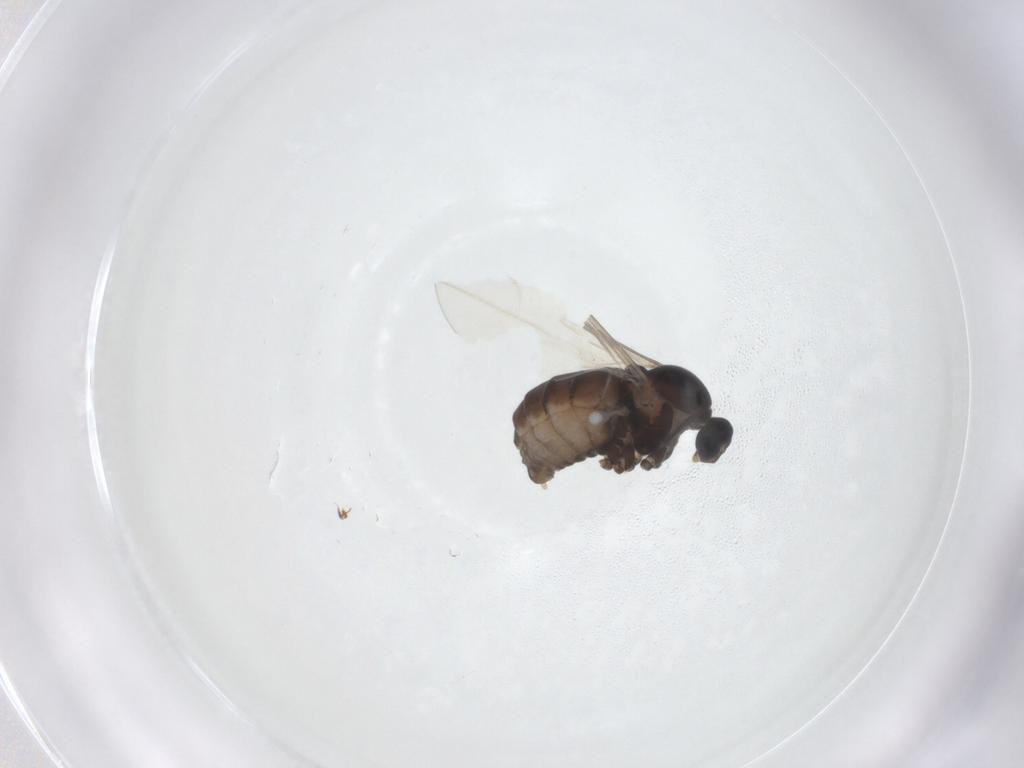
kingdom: Animalia
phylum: Arthropoda
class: Insecta
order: Diptera
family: Cecidomyiidae
